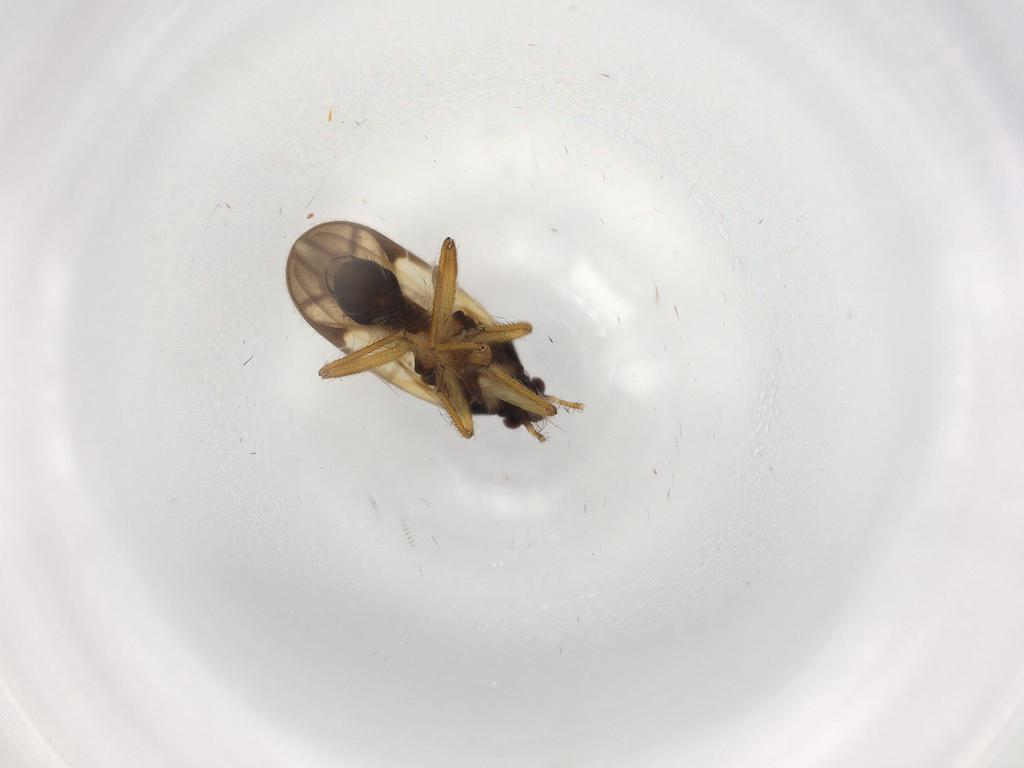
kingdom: Animalia
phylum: Arthropoda
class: Insecta
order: Hemiptera
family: Ceratocombidae
